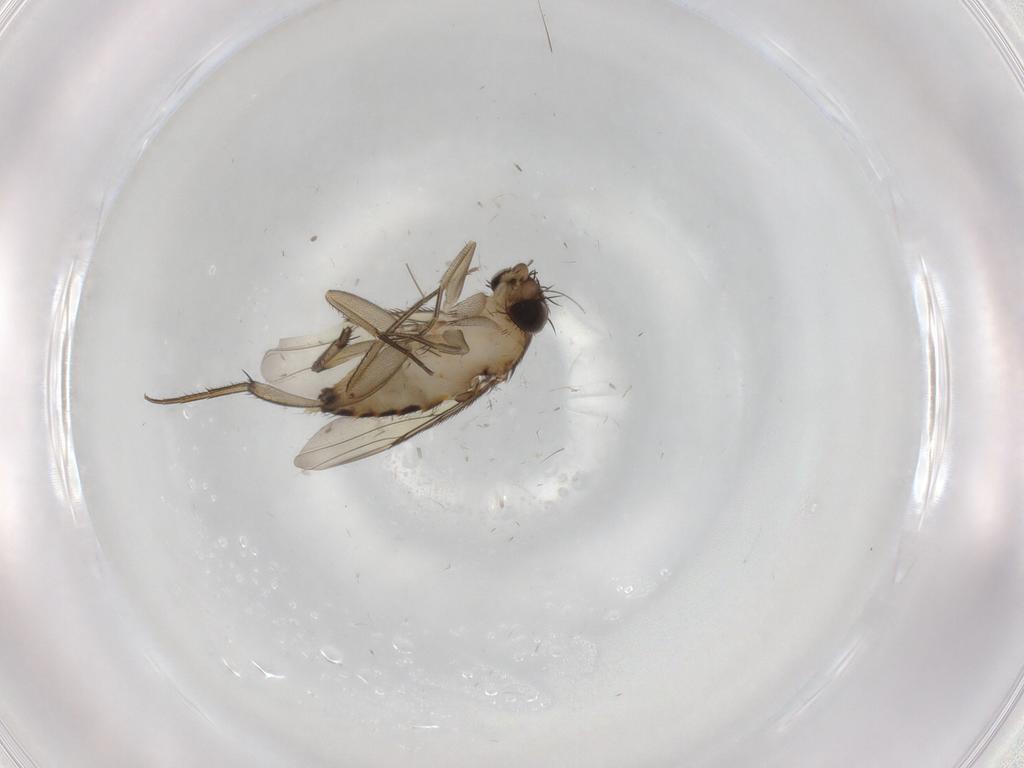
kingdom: Animalia
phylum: Arthropoda
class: Insecta
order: Diptera
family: Phoridae
